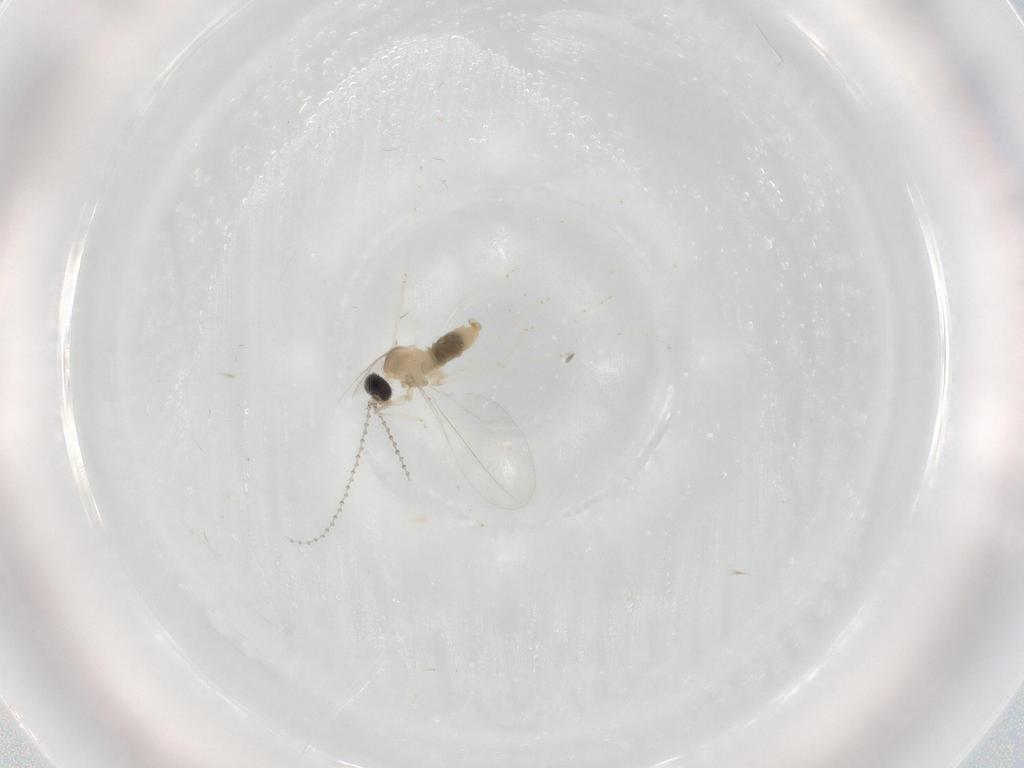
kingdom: Animalia
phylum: Arthropoda
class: Insecta
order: Diptera
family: Cecidomyiidae
